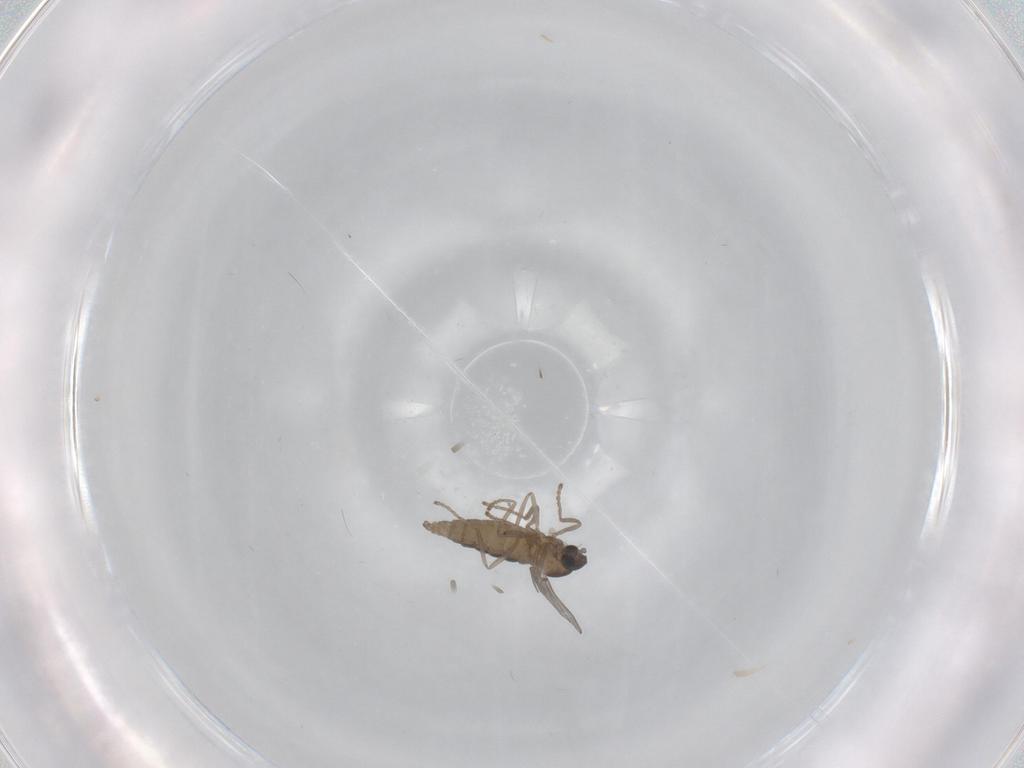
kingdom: Animalia
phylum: Arthropoda
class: Insecta
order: Diptera
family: Cecidomyiidae
